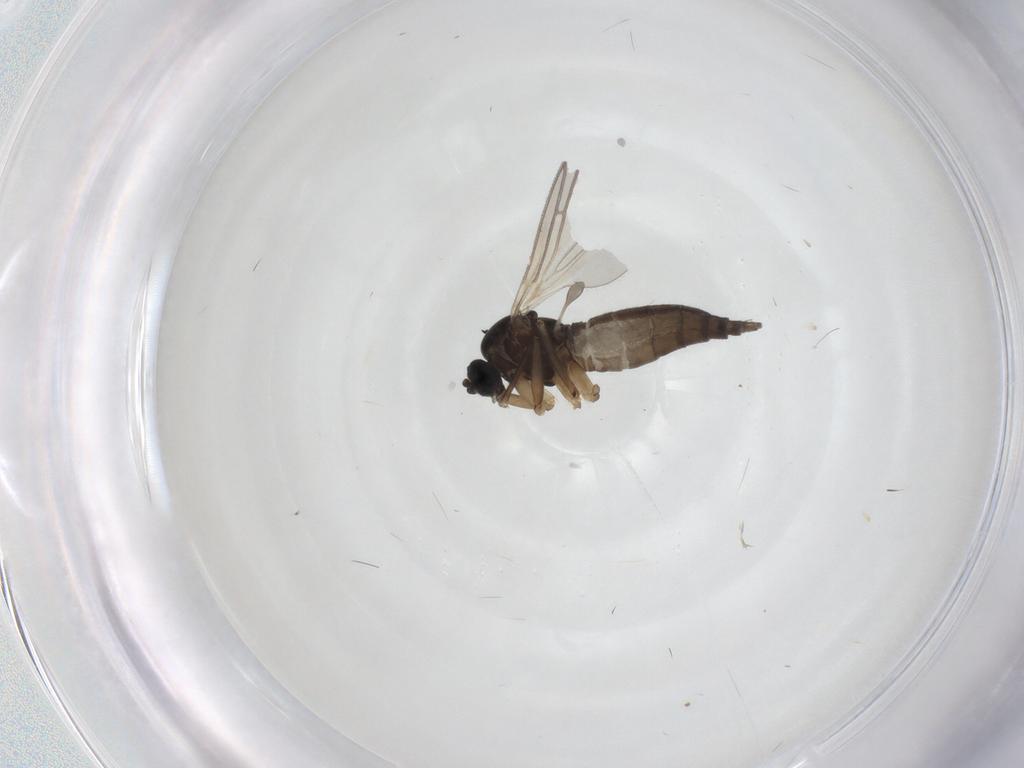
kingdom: Animalia
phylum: Arthropoda
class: Insecta
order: Diptera
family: Sciaridae
